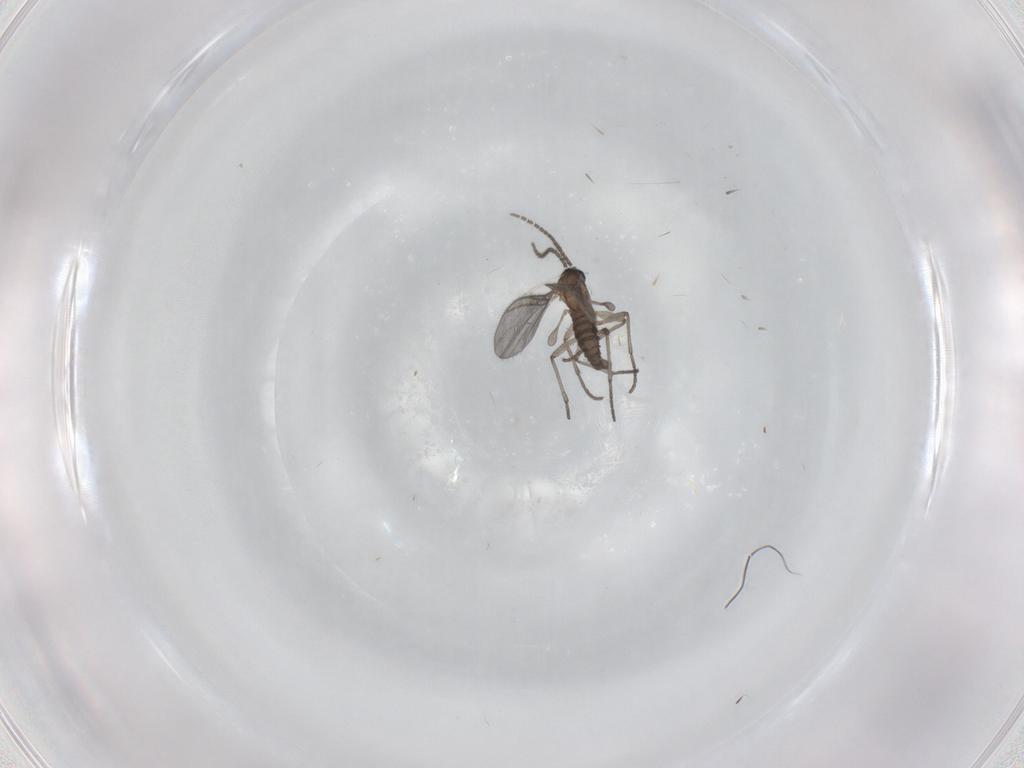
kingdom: Animalia
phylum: Arthropoda
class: Insecta
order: Diptera
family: Sciaridae
